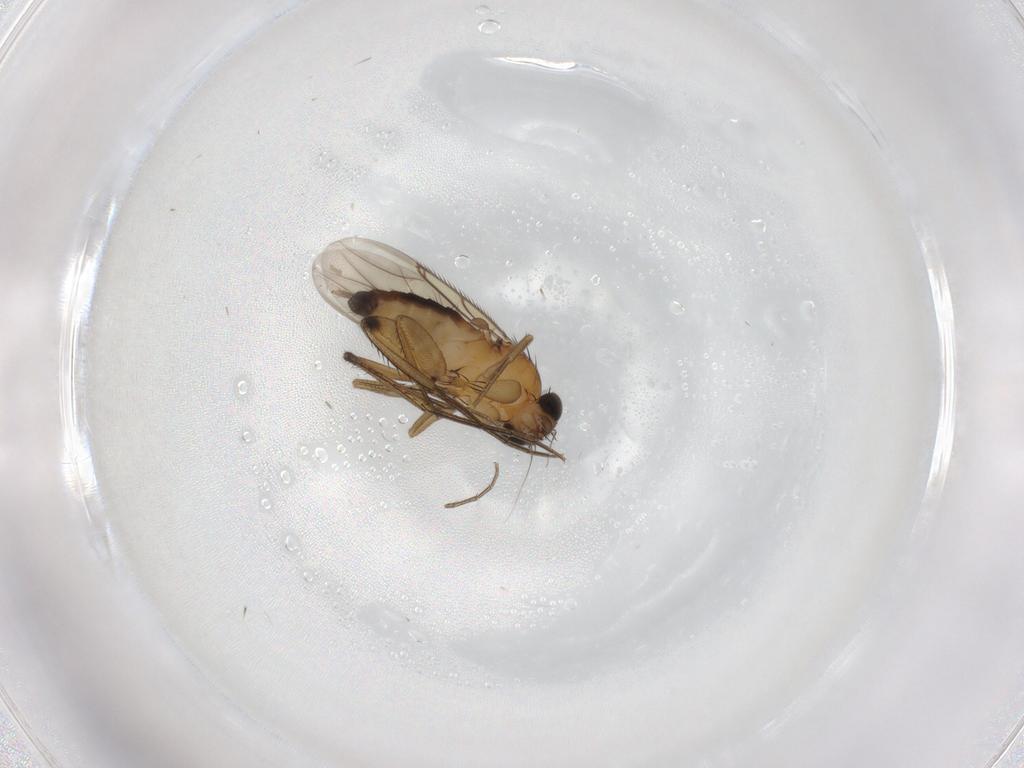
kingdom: Animalia
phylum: Arthropoda
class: Insecta
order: Diptera
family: Phoridae
